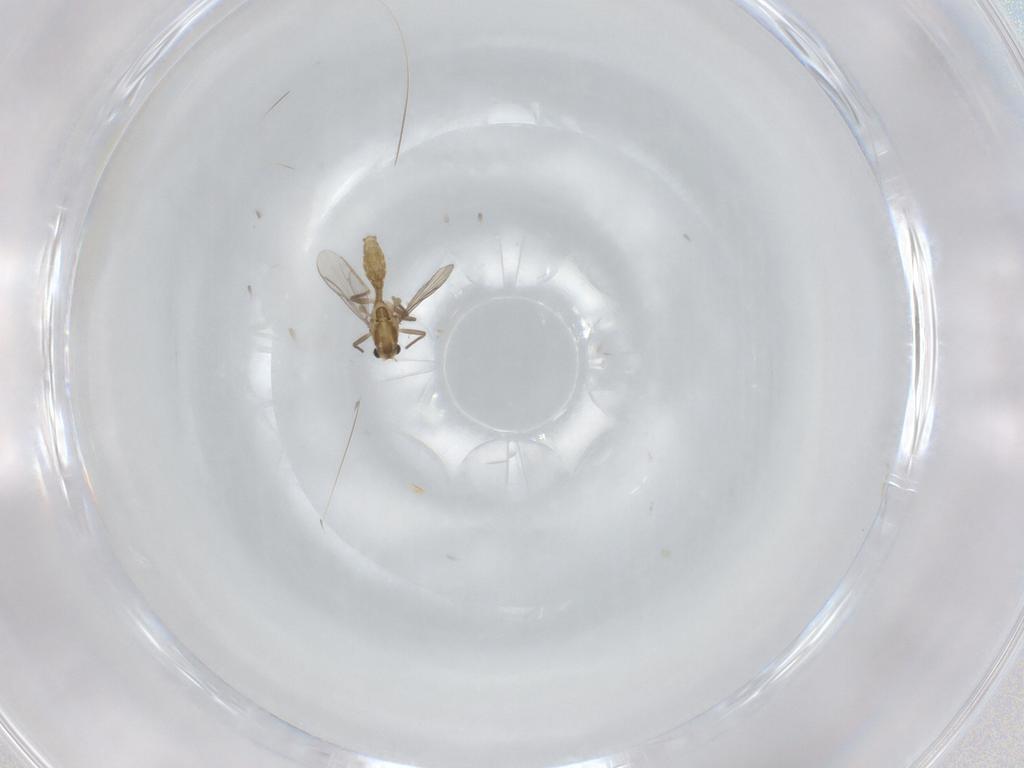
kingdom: Animalia
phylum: Arthropoda
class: Insecta
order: Diptera
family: Chironomidae
